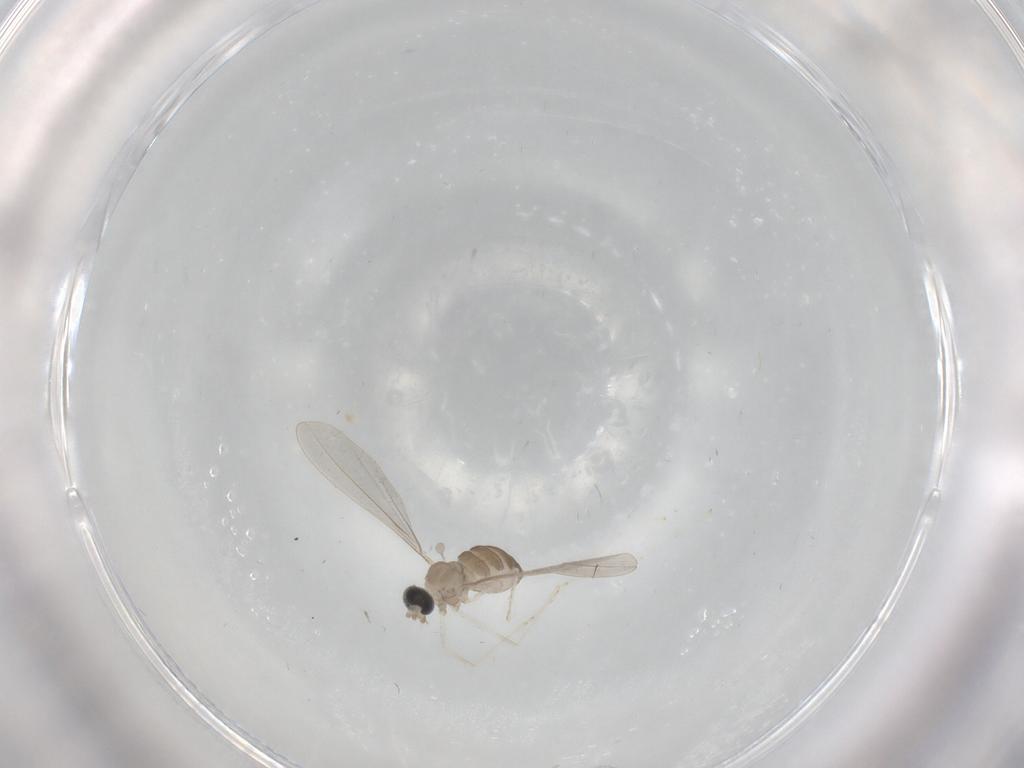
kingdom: Animalia
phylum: Arthropoda
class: Insecta
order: Diptera
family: Cecidomyiidae
